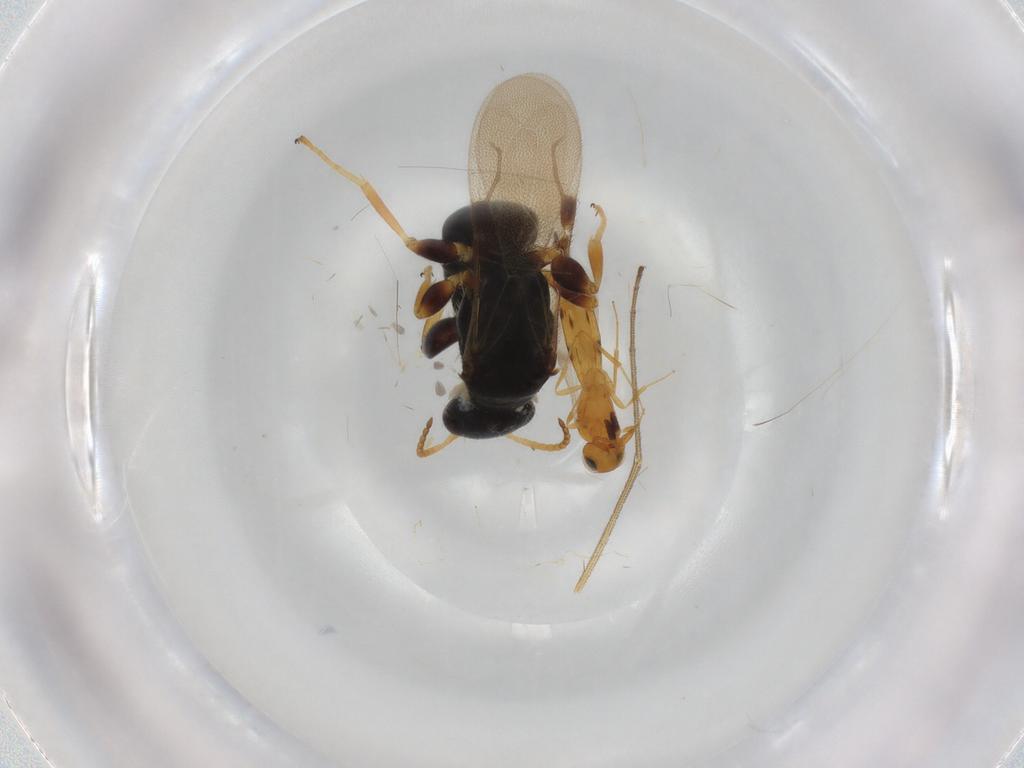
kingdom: Animalia
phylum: Arthropoda
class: Insecta
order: Hymenoptera
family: Bethylidae
